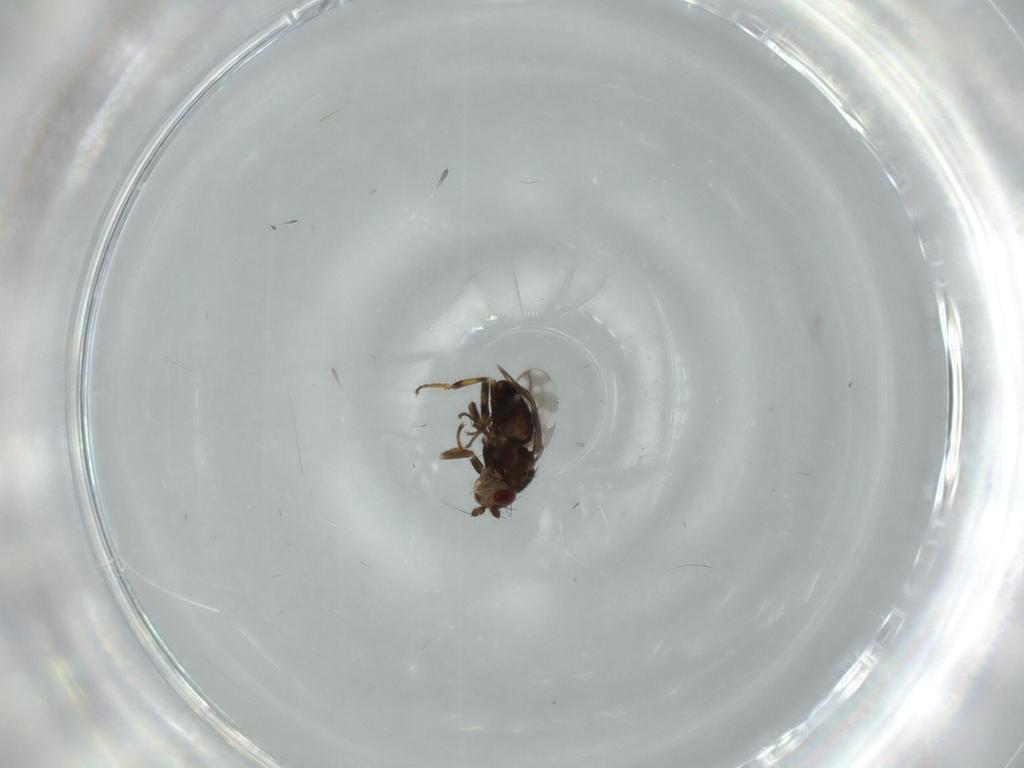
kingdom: Animalia
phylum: Arthropoda
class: Insecta
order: Diptera
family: Sphaeroceridae
